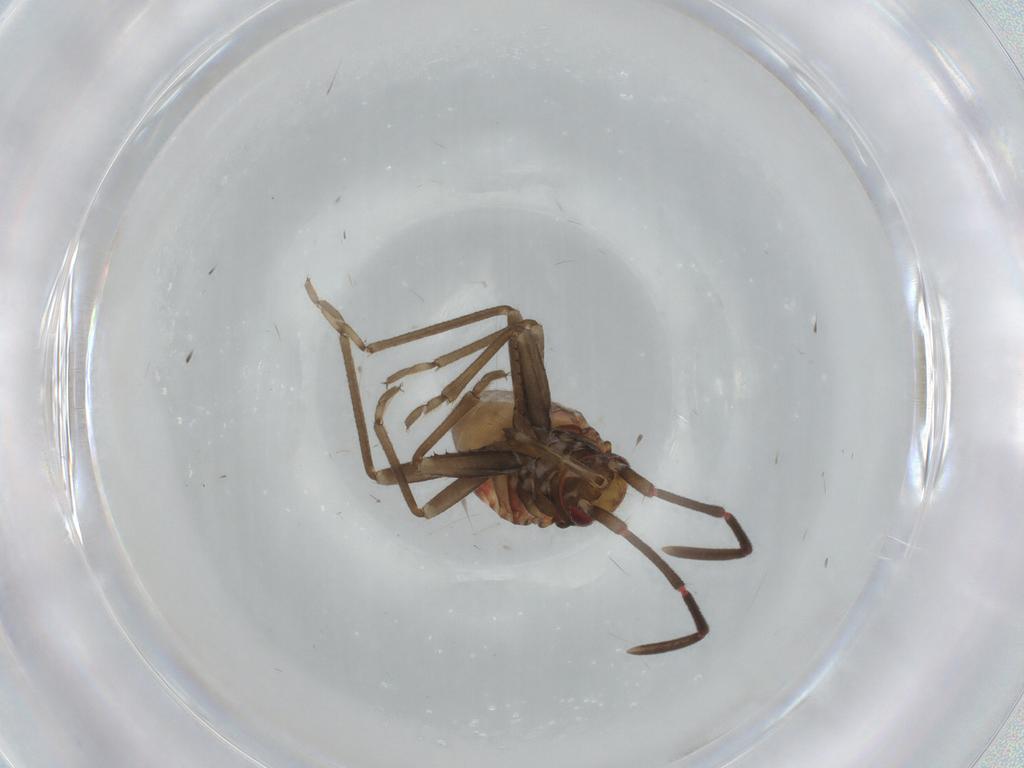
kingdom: Animalia
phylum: Arthropoda
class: Insecta
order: Hemiptera
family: Rhyparochromidae
